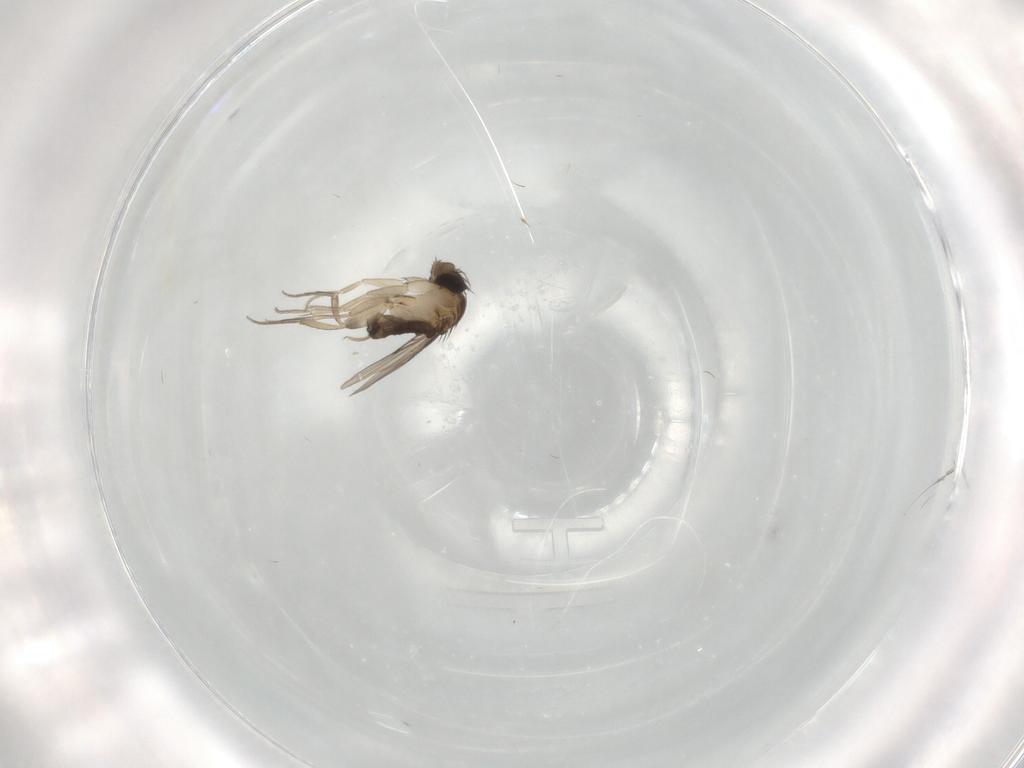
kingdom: Animalia
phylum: Arthropoda
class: Insecta
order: Diptera
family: Phoridae
